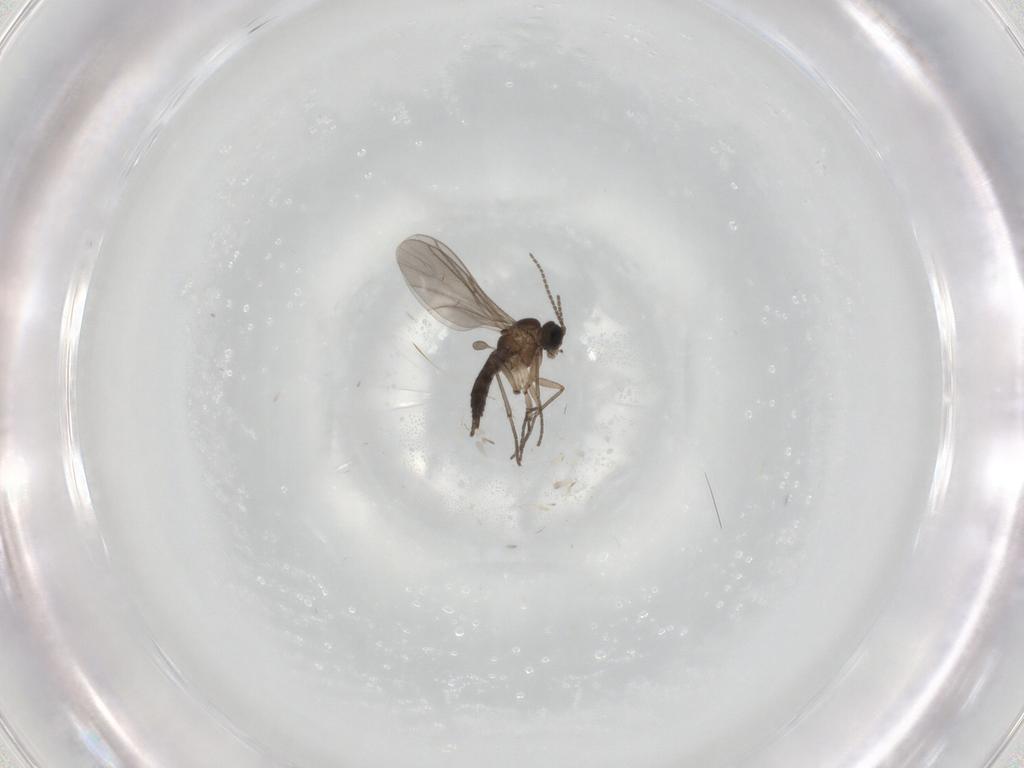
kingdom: Animalia
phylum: Arthropoda
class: Insecta
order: Diptera
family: Sciaridae
